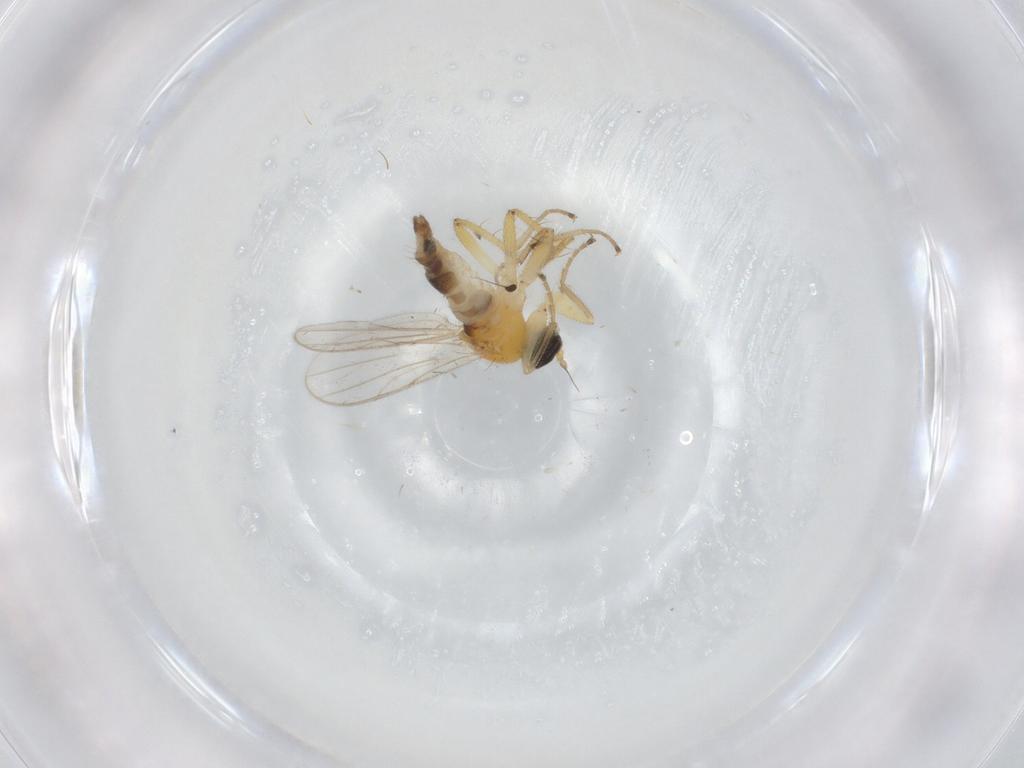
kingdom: Animalia
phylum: Arthropoda
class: Insecta
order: Diptera
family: Hybotidae
